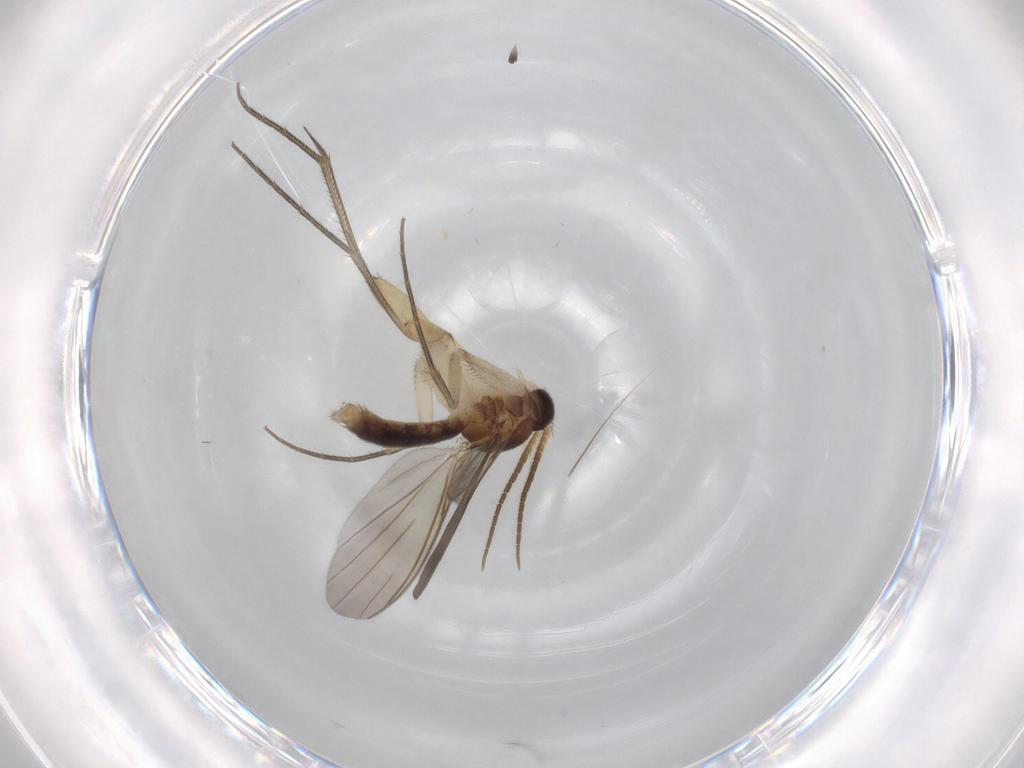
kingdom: Animalia
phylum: Arthropoda
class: Insecta
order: Diptera
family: Mycetophilidae
